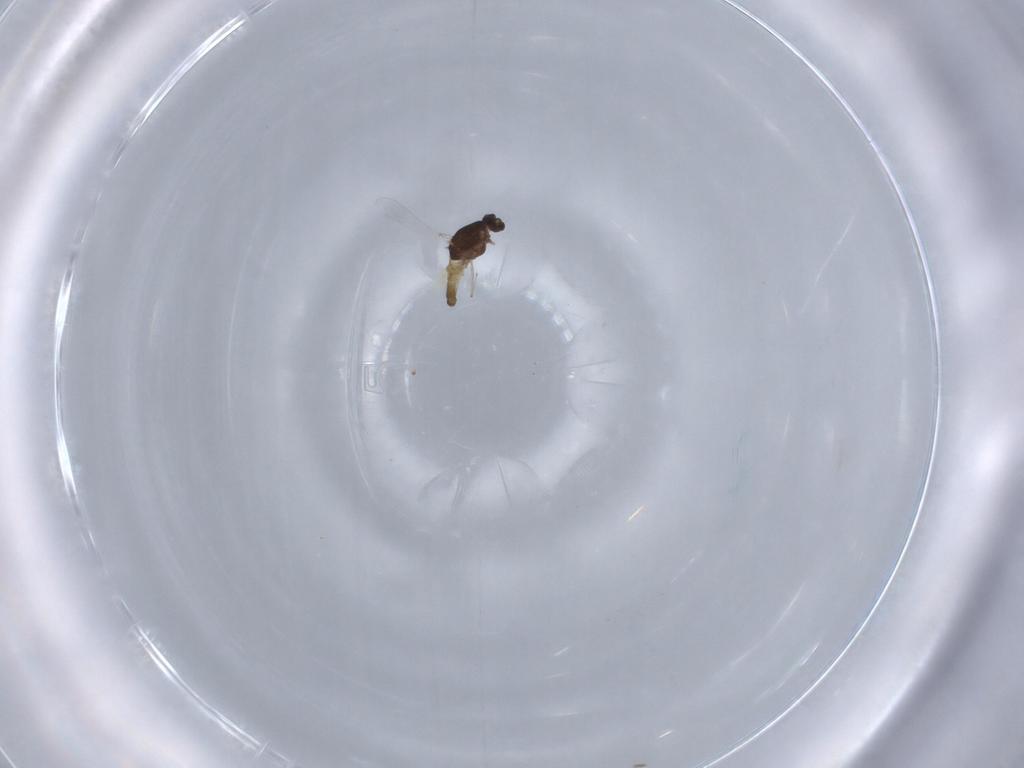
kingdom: Animalia
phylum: Arthropoda
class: Insecta
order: Diptera
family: Chironomidae
